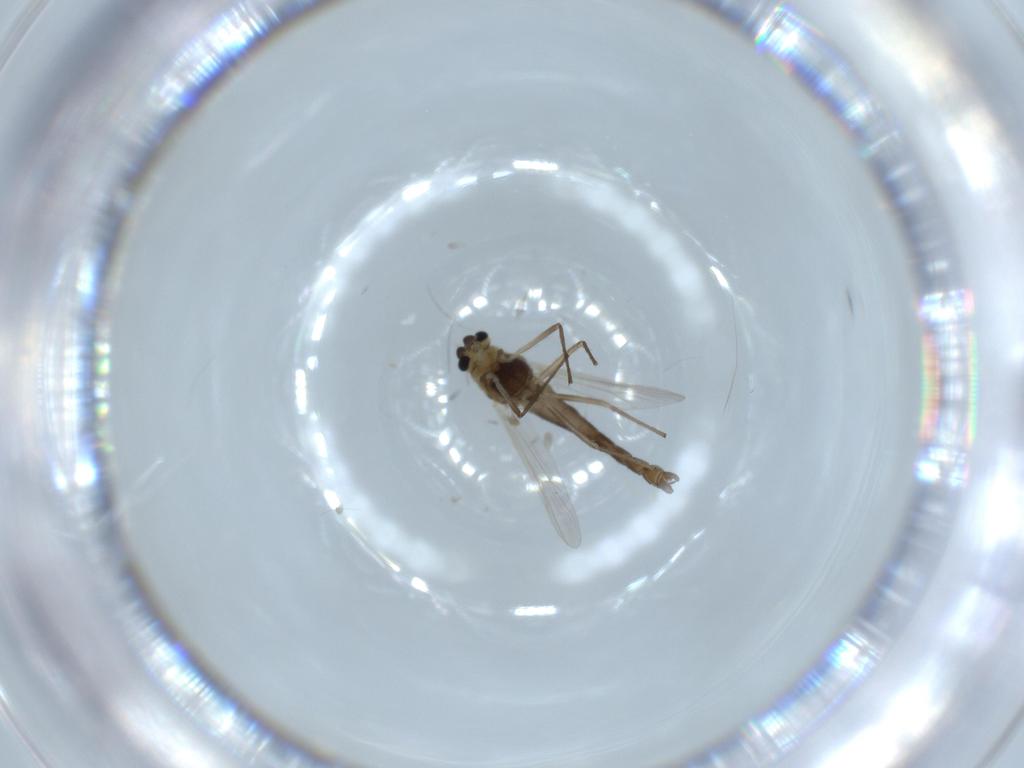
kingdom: Animalia
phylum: Arthropoda
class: Insecta
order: Diptera
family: Chironomidae
